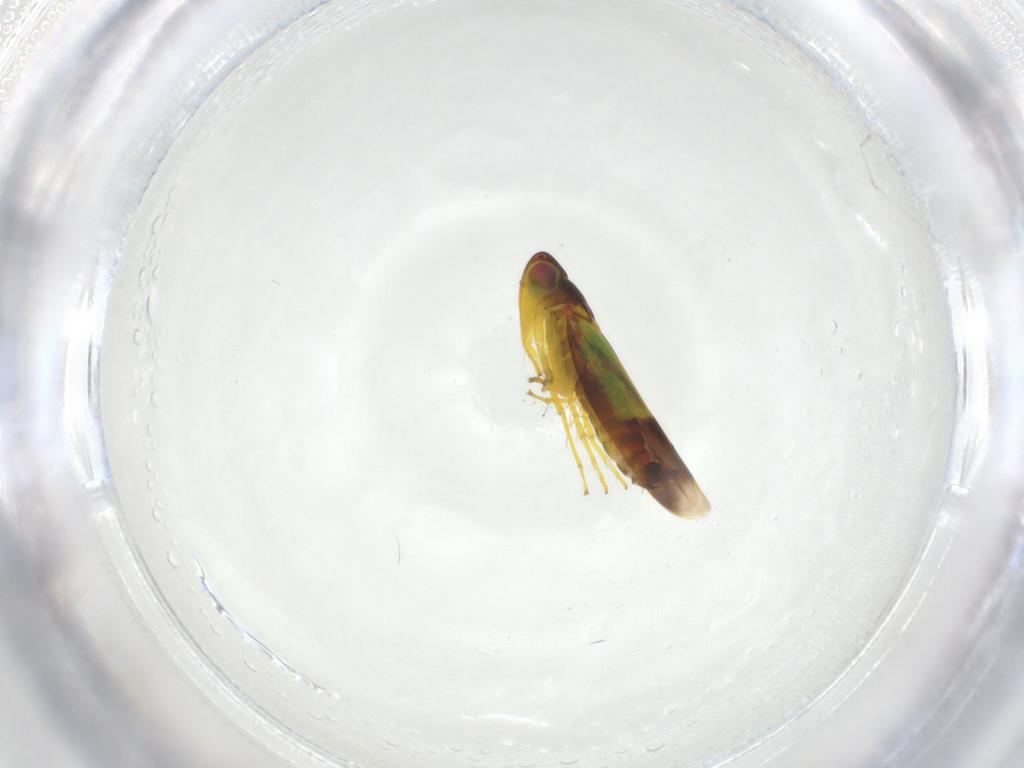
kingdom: Animalia
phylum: Arthropoda
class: Insecta
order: Hemiptera
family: Cicadellidae
